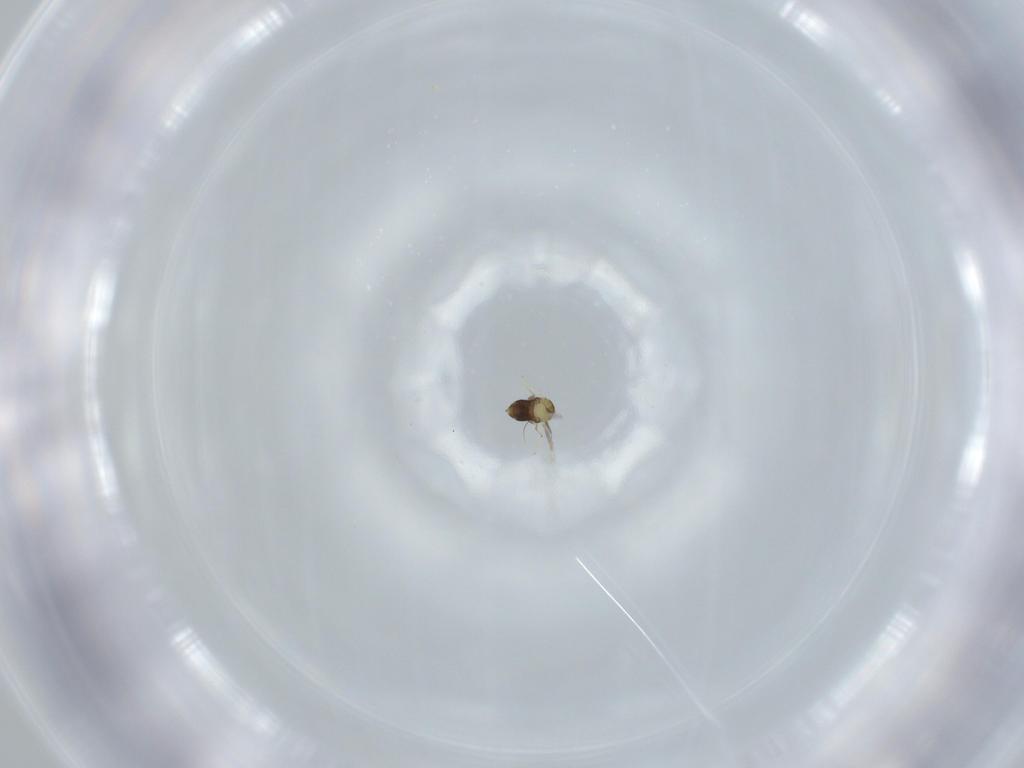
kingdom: Animalia
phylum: Arthropoda
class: Insecta
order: Hymenoptera
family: Aphelinidae
